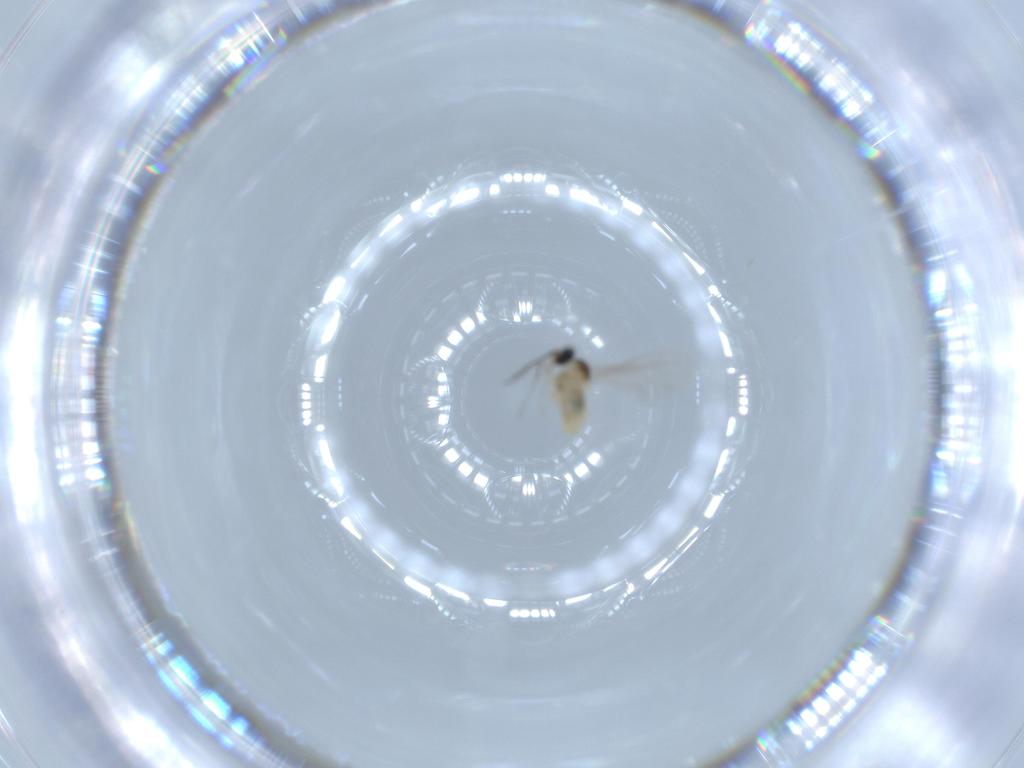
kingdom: Animalia
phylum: Arthropoda
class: Insecta
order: Diptera
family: Cecidomyiidae
